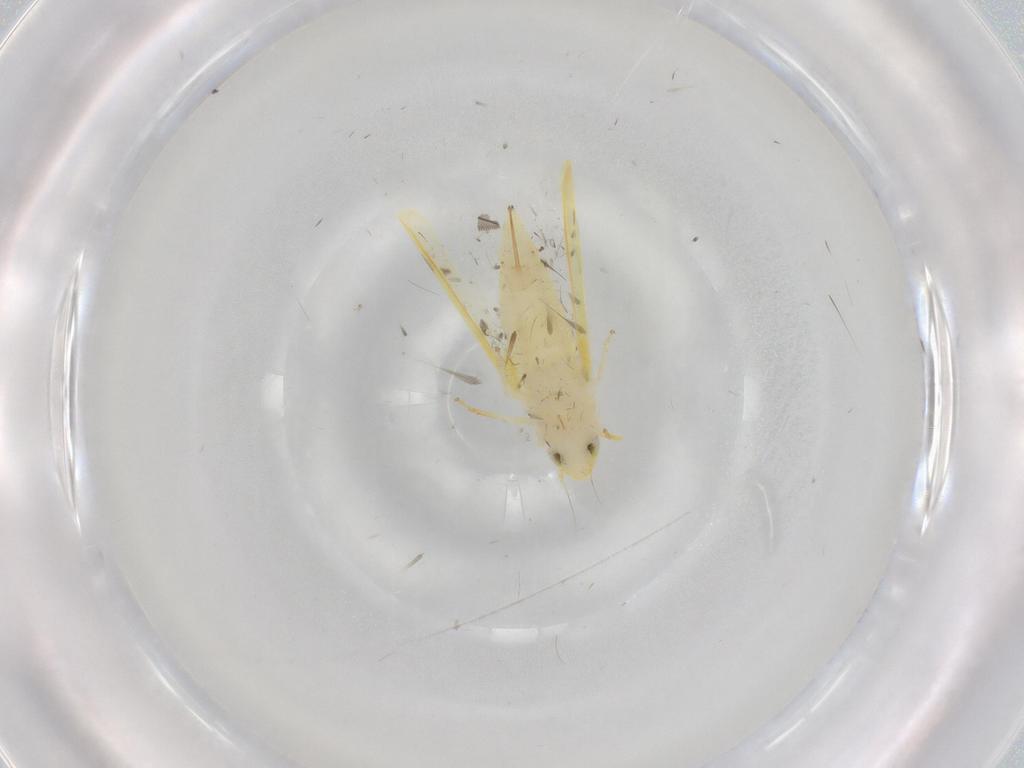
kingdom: Animalia
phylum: Arthropoda
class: Insecta
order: Hemiptera
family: Cicadellidae
